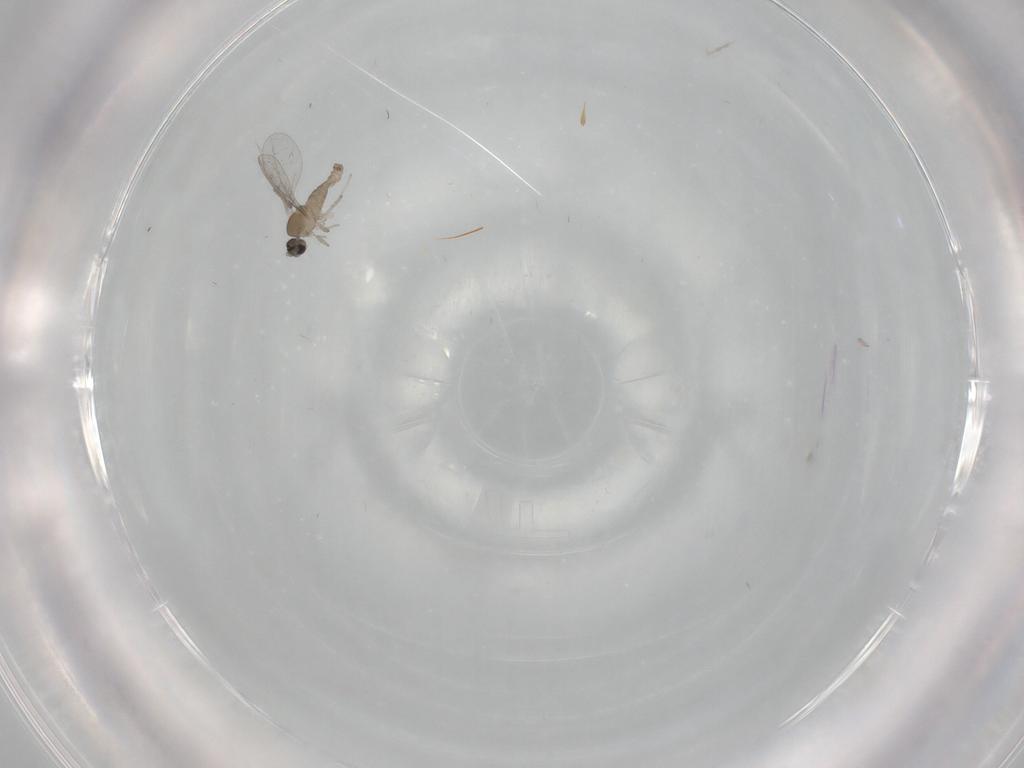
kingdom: Animalia
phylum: Arthropoda
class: Insecta
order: Diptera
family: Cecidomyiidae
